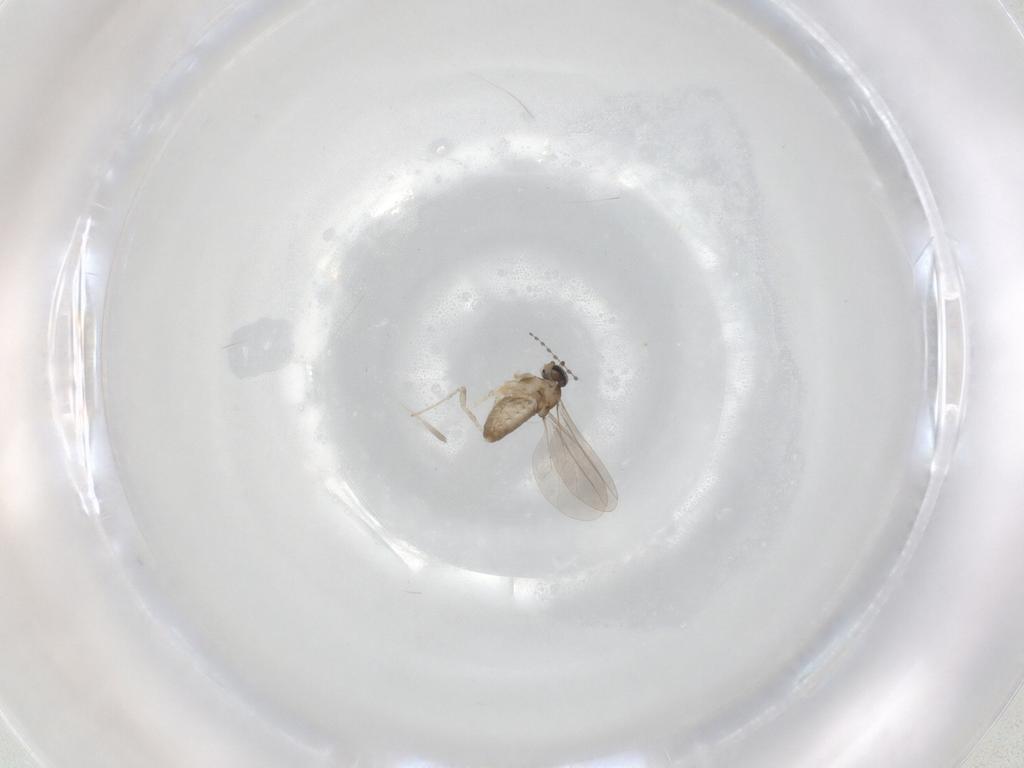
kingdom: Animalia
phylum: Arthropoda
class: Insecta
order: Diptera
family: Cecidomyiidae
